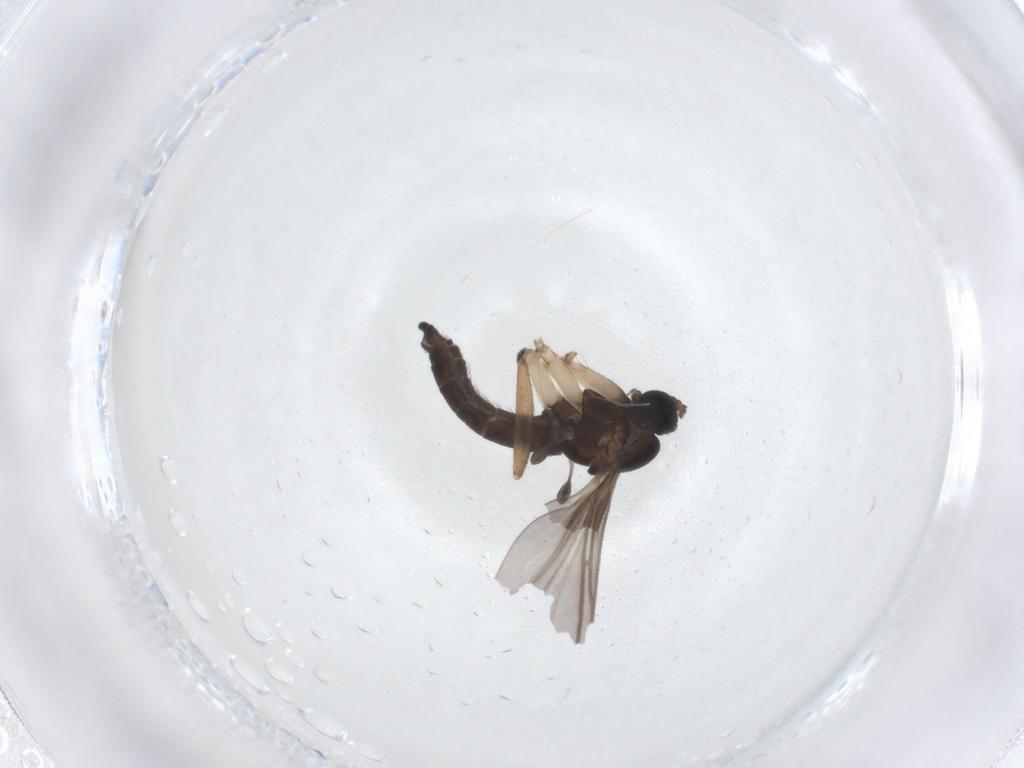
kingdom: Animalia
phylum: Arthropoda
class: Insecta
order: Diptera
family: Sciaridae
